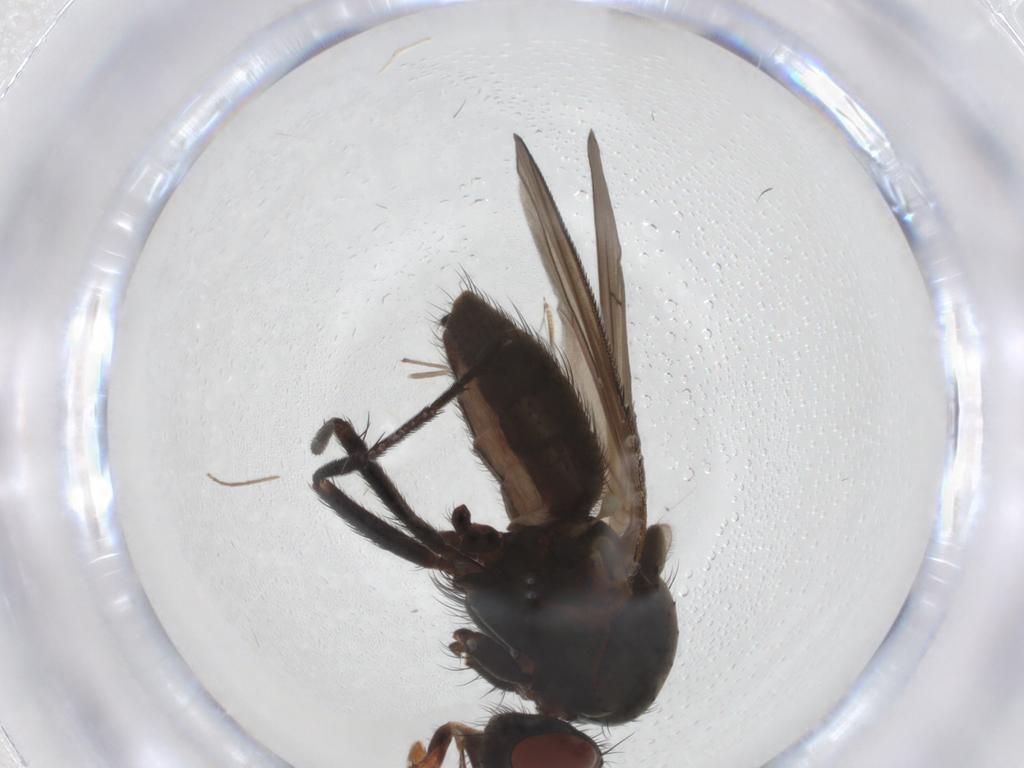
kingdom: Animalia
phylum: Arthropoda
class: Insecta
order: Diptera
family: Anthomyiidae
